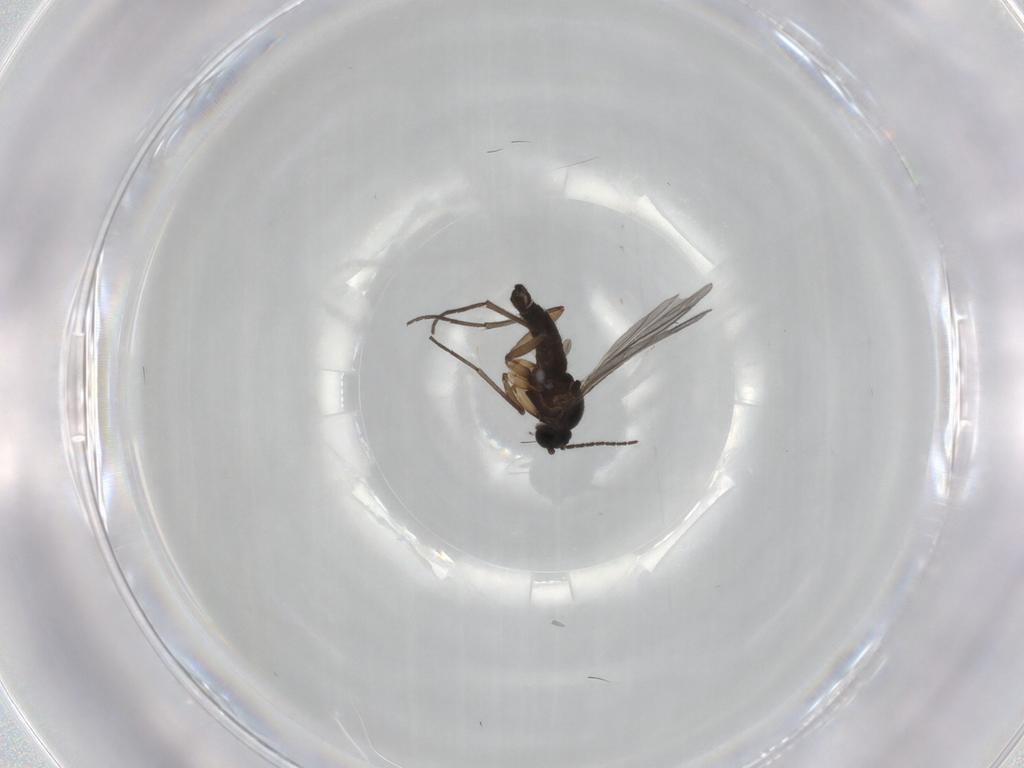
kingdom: Animalia
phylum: Arthropoda
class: Insecta
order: Diptera
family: Sciaridae
